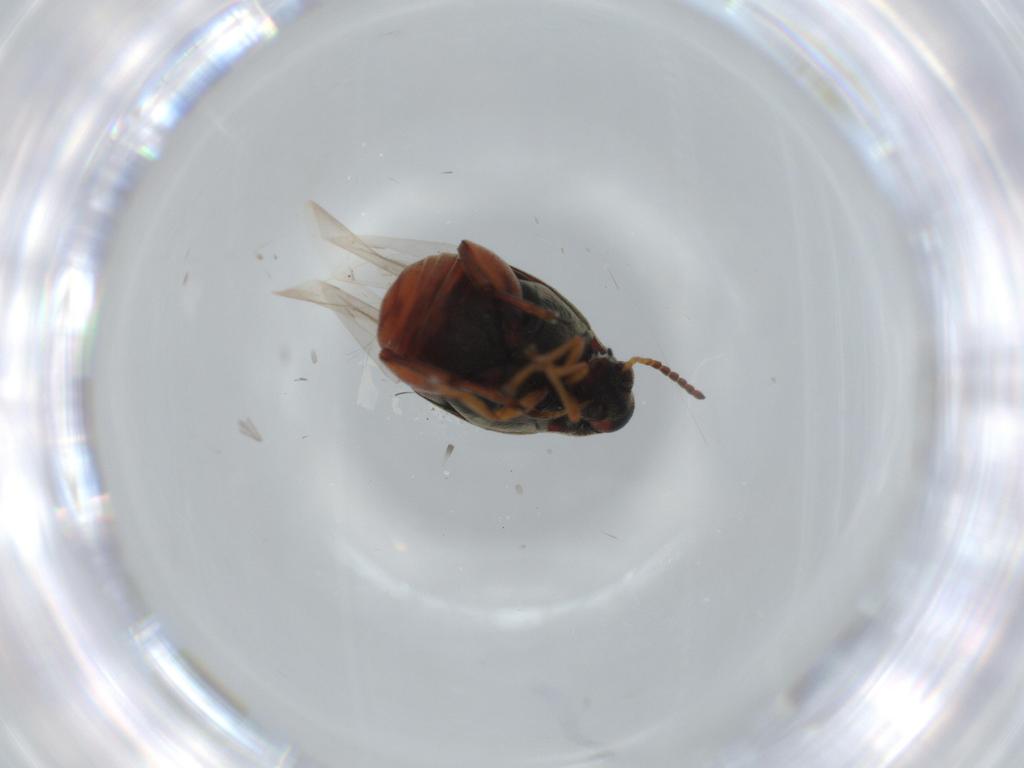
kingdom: Animalia
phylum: Arthropoda
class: Insecta
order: Coleoptera
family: Chrysomelidae
